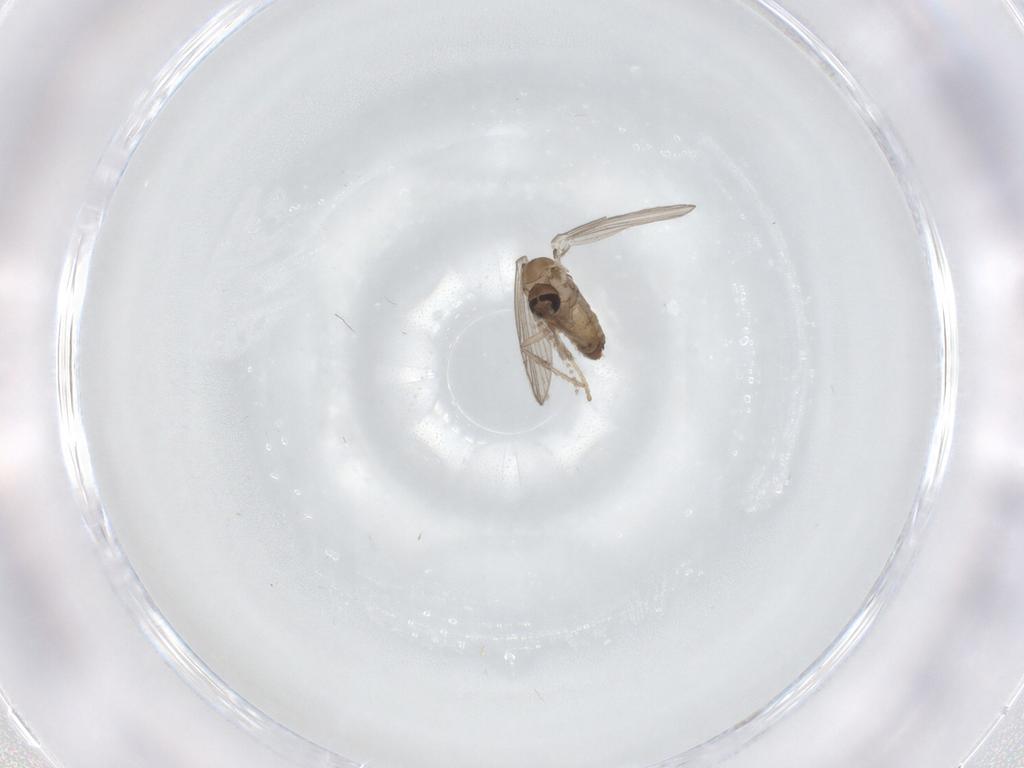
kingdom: Animalia
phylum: Arthropoda
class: Insecta
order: Diptera
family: Psychodidae
